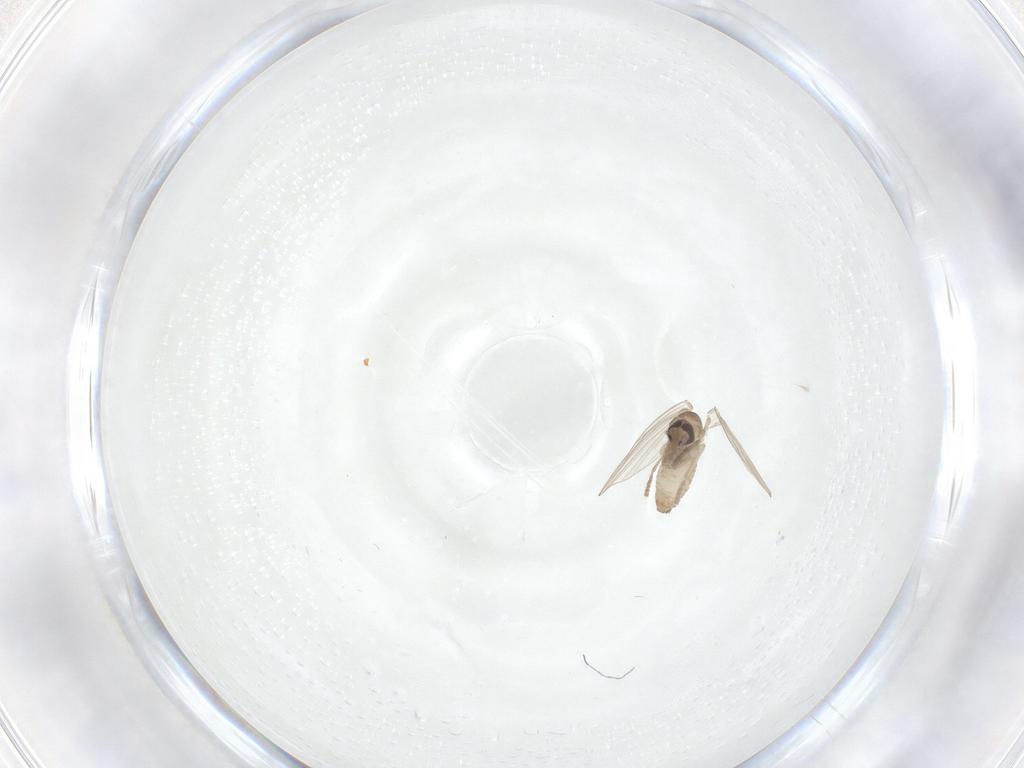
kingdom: Animalia
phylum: Arthropoda
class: Insecta
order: Diptera
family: Psychodidae
